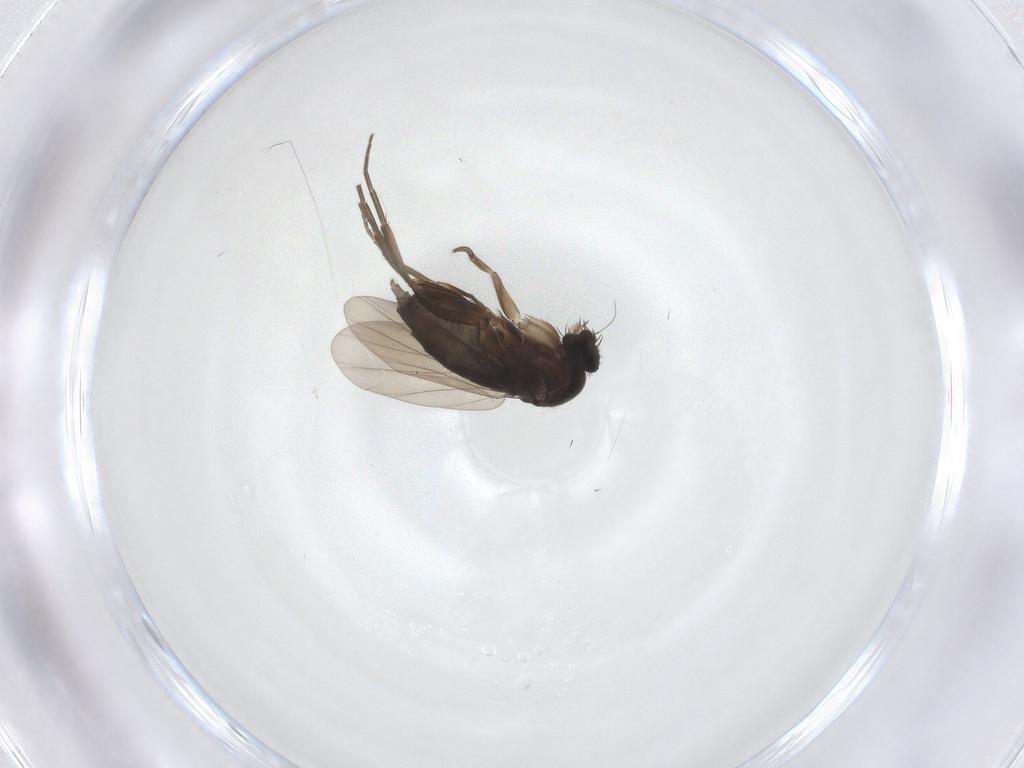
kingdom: Animalia
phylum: Arthropoda
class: Insecta
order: Diptera
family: Phoridae
